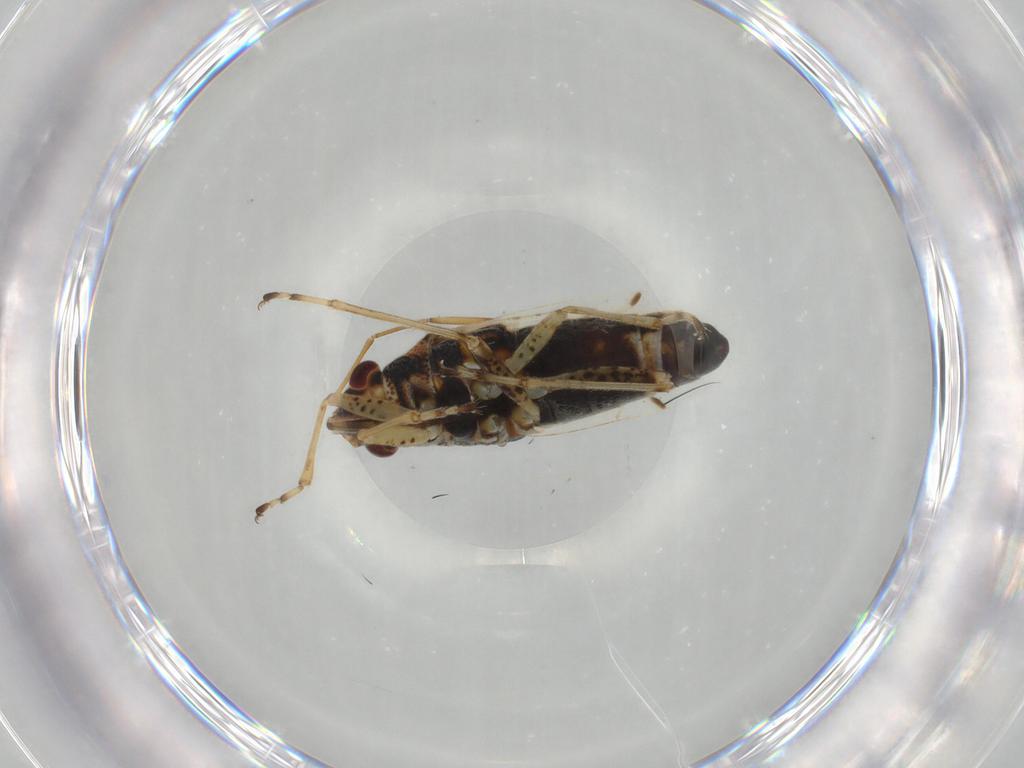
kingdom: Animalia
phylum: Arthropoda
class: Insecta
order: Hemiptera
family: Lygaeidae
